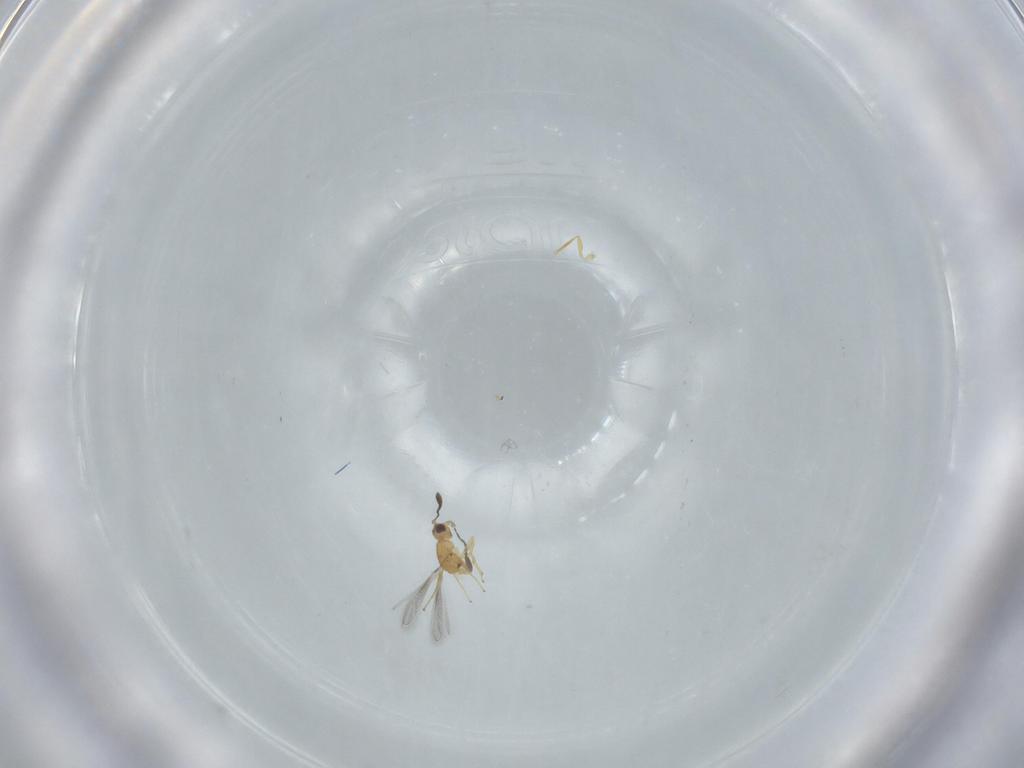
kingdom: Animalia
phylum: Arthropoda
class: Insecta
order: Hymenoptera
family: Mymaridae
